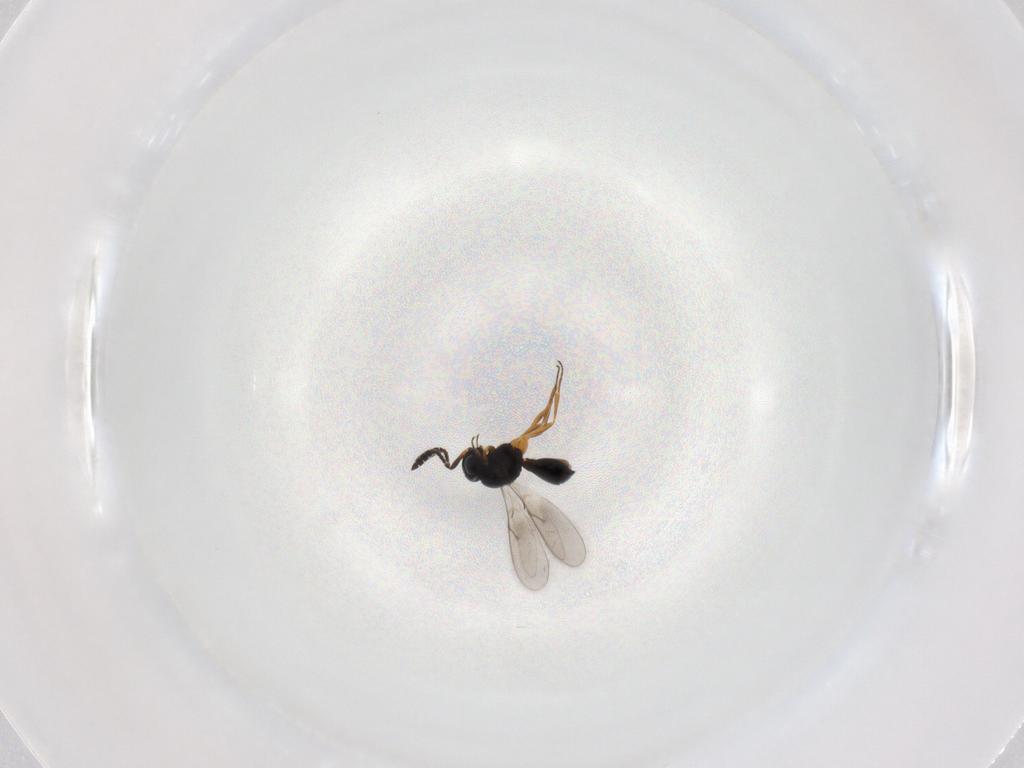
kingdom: Animalia
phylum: Arthropoda
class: Insecta
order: Hymenoptera
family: Scelionidae
